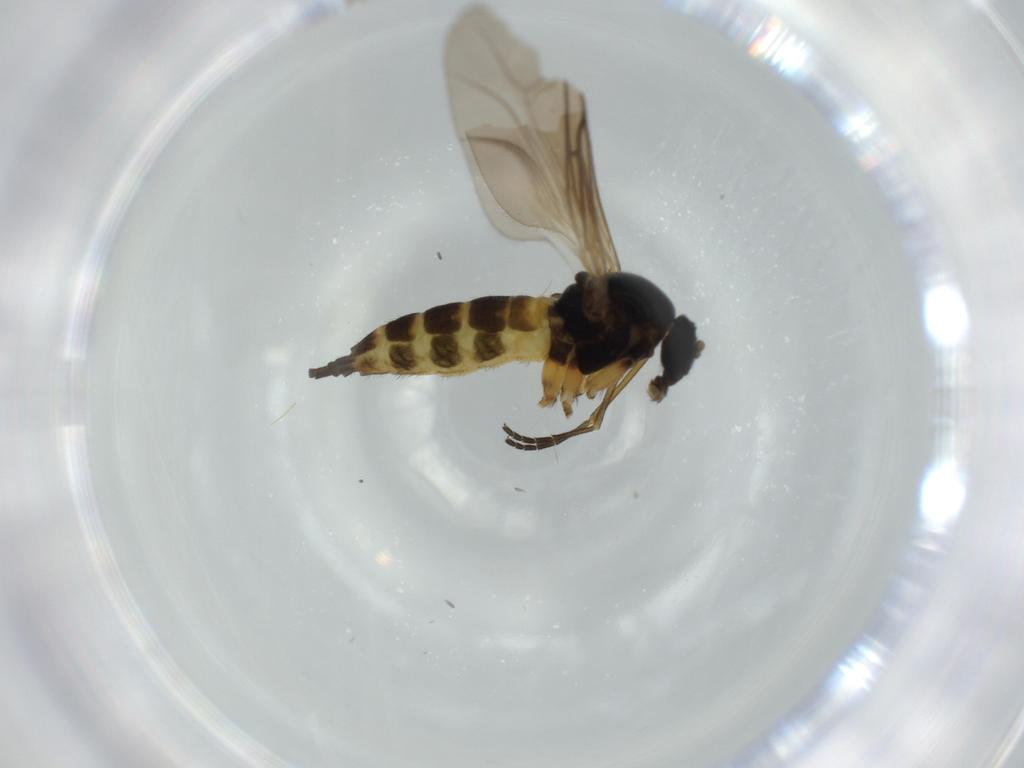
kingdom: Animalia
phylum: Arthropoda
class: Insecta
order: Diptera
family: Sciaridae
